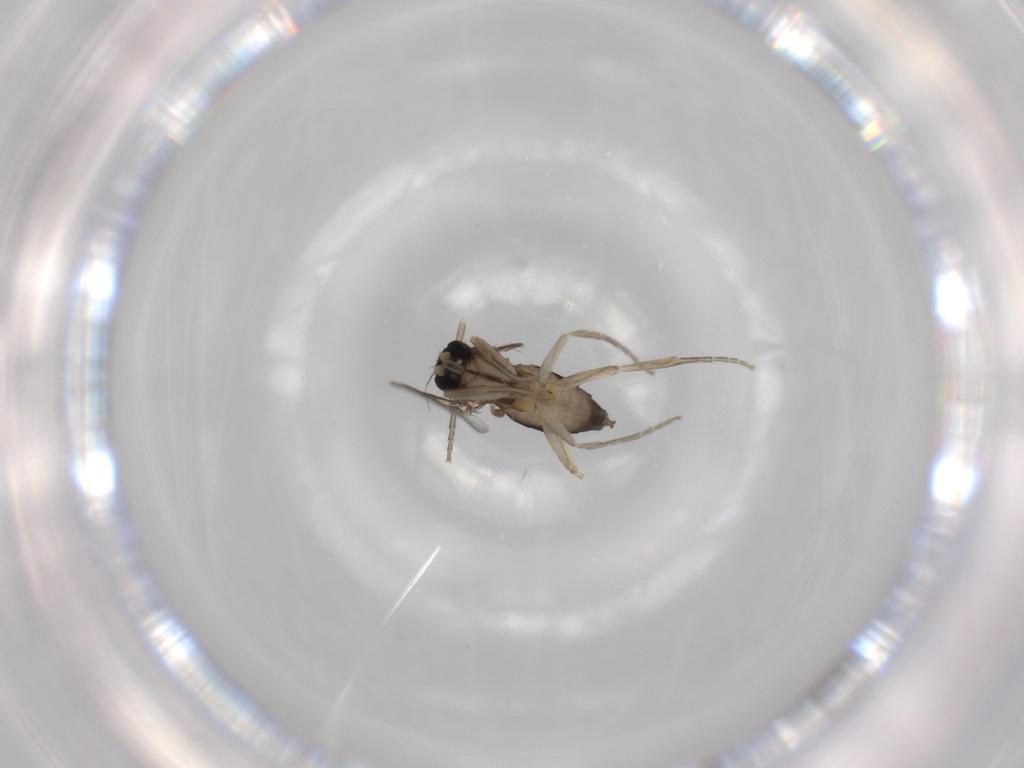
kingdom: Animalia
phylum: Arthropoda
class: Insecta
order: Diptera
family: Phoridae
